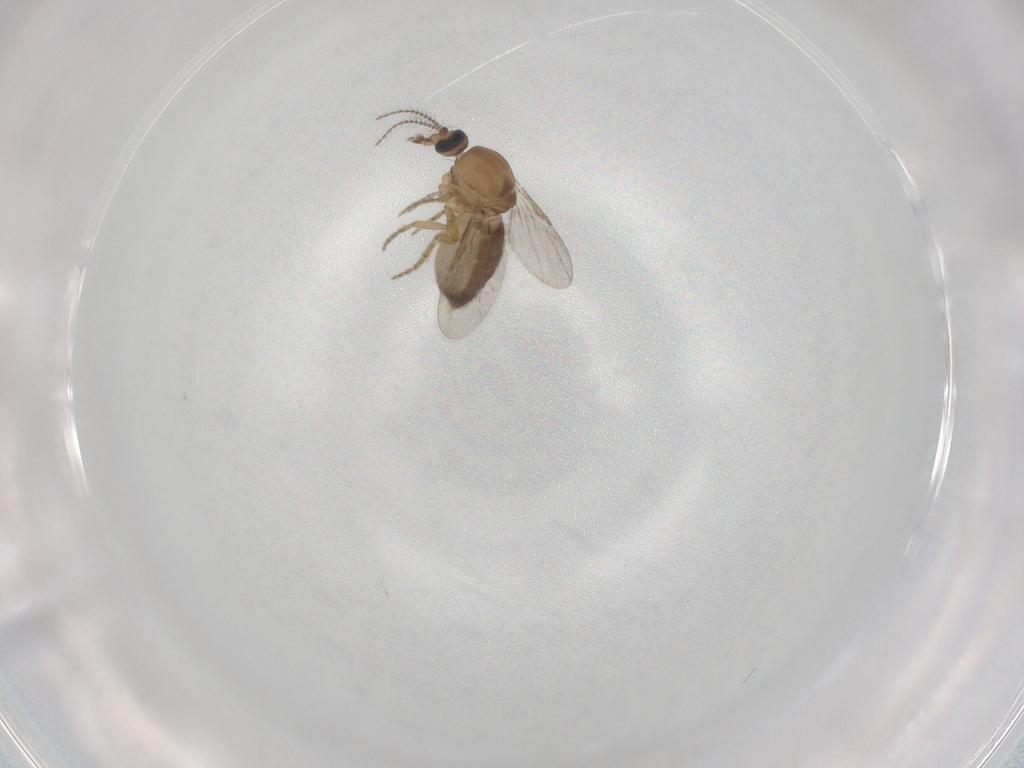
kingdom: Animalia
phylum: Arthropoda
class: Insecta
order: Diptera
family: Ceratopogonidae
